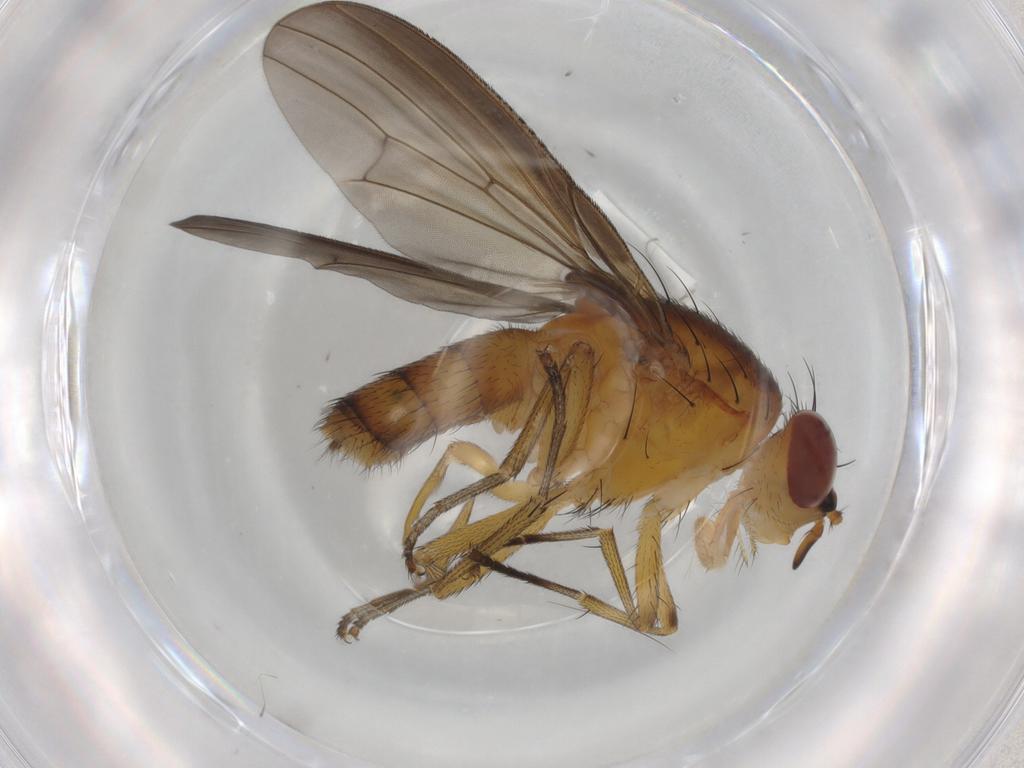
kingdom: Animalia
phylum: Arthropoda
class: Insecta
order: Diptera
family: Lauxaniidae
